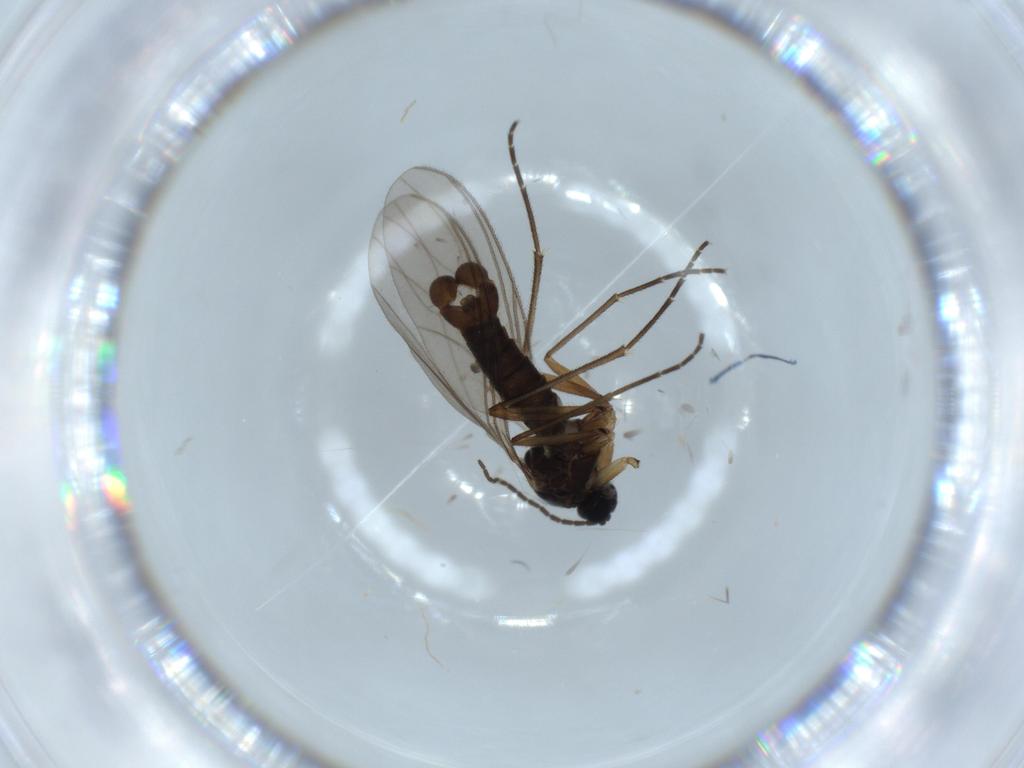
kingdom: Animalia
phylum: Arthropoda
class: Insecta
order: Diptera
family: Sciaridae
